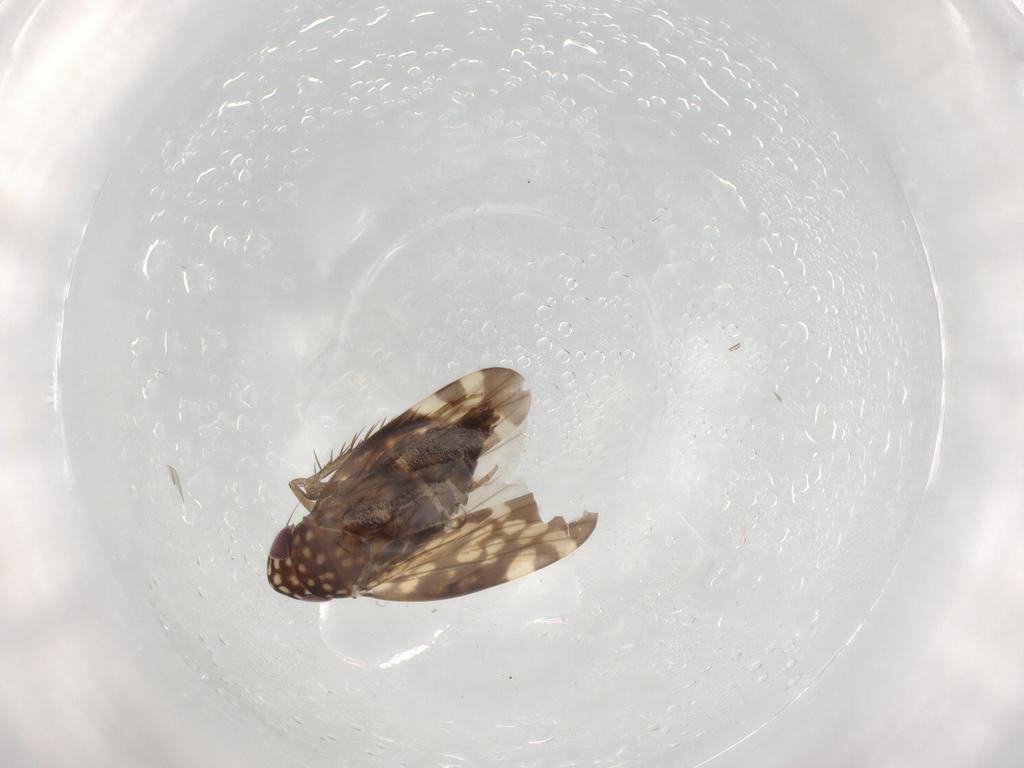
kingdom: Animalia
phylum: Arthropoda
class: Insecta
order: Hemiptera
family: Cicadellidae
